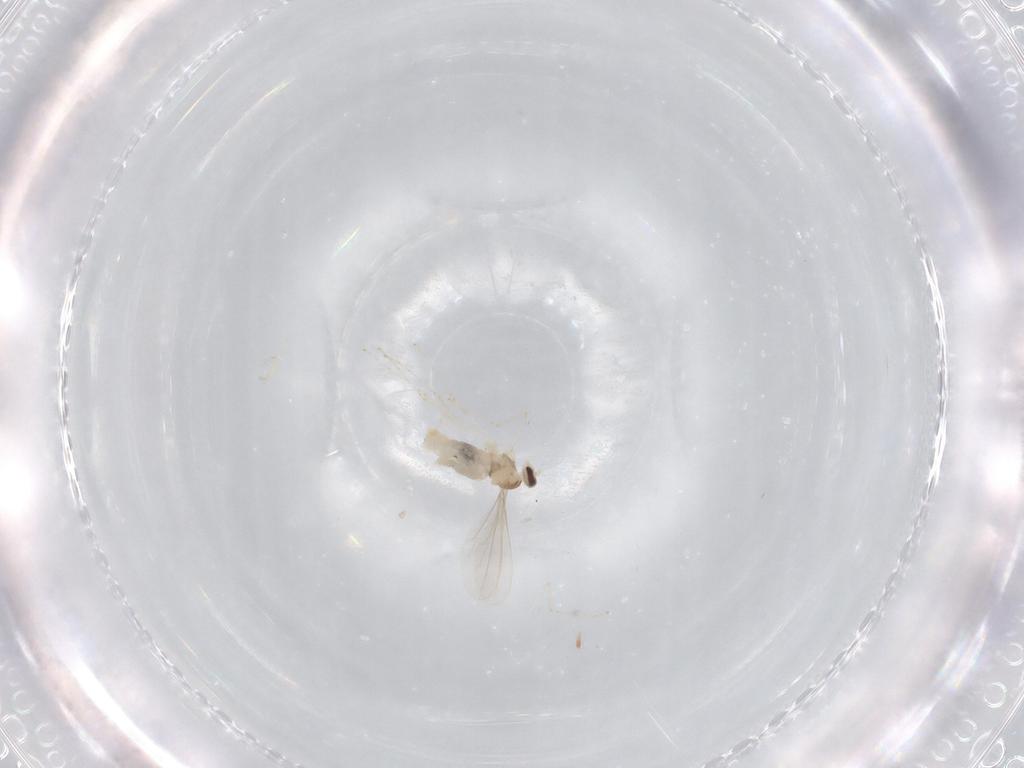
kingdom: Animalia
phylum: Arthropoda
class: Insecta
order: Diptera
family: Cecidomyiidae
